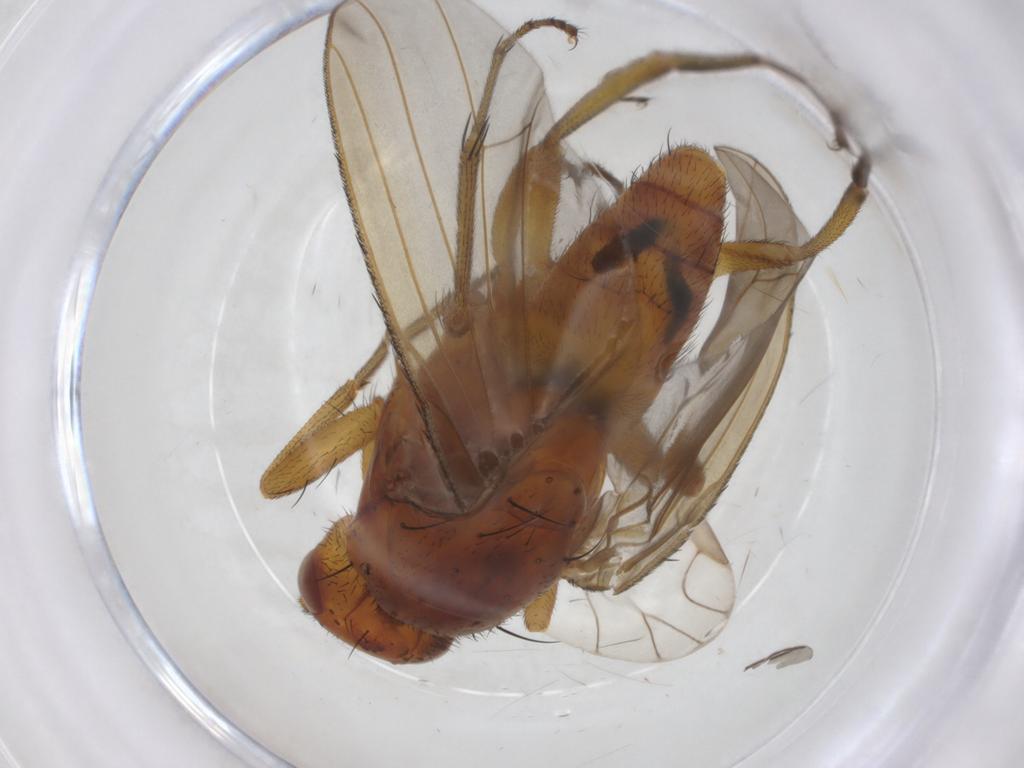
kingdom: Animalia
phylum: Arthropoda
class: Insecta
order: Diptera
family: Heleomyzidae
